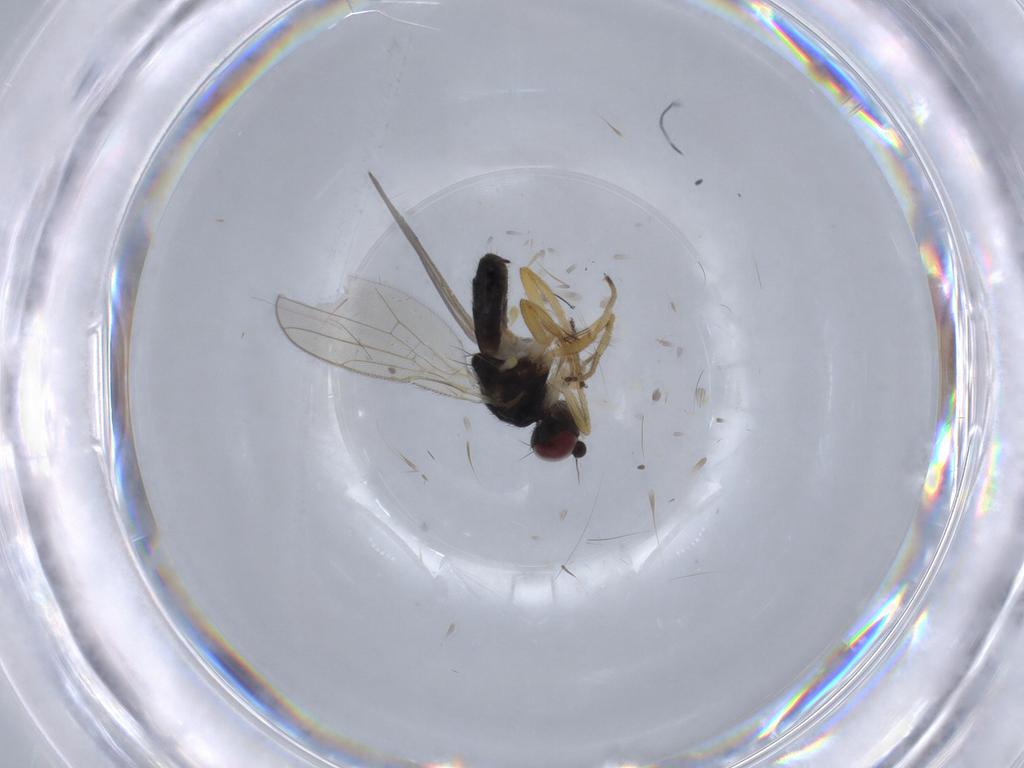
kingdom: Animalia
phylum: Arthropoda
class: Insecta
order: Diptera
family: Chloropidae
